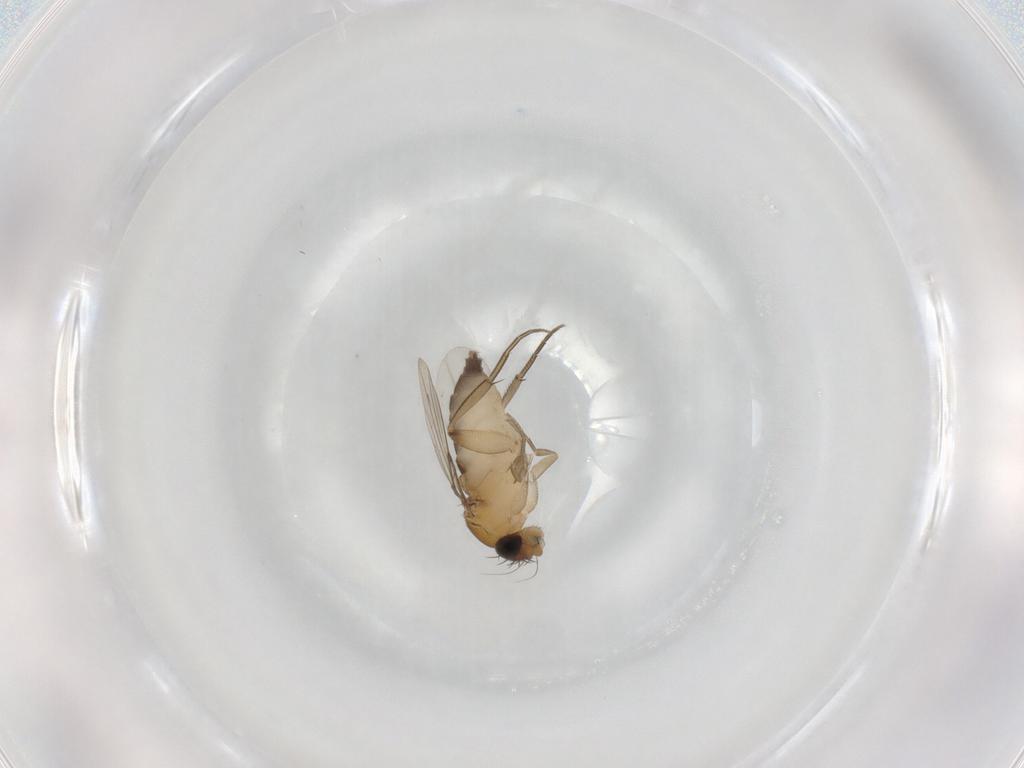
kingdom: Animalia
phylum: Arthropoda
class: Insecta
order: Diptera
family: Phoridae
